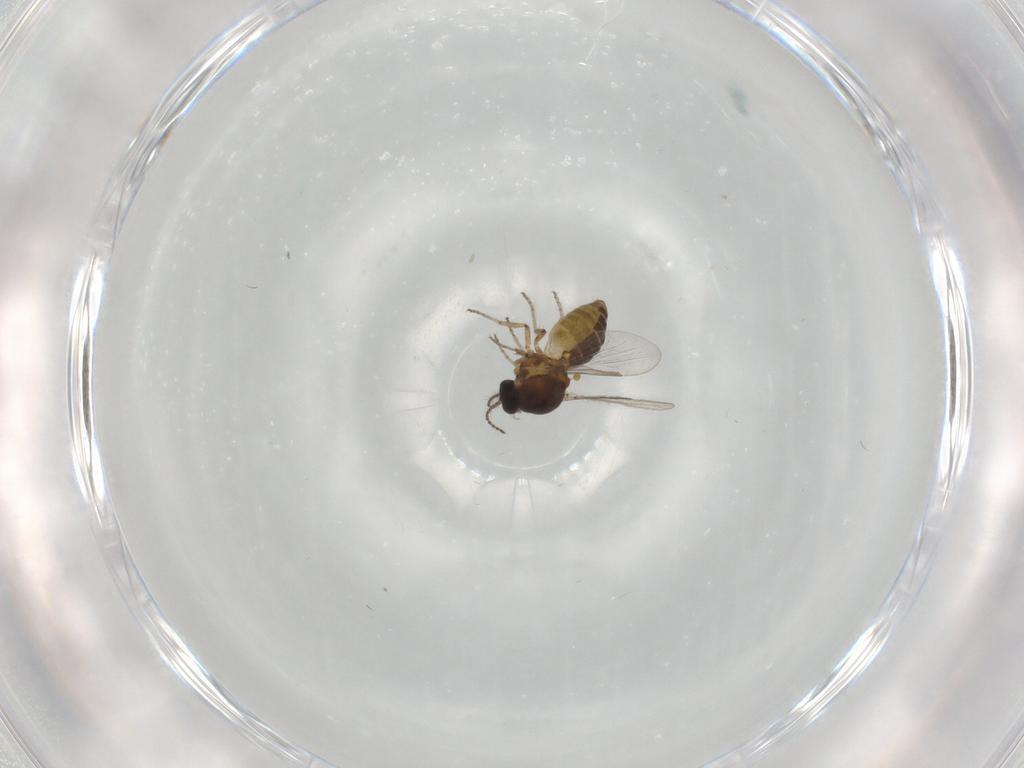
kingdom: Animalia
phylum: Arthropoda
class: Insecta
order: Diptera
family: Ceratopogonidae
